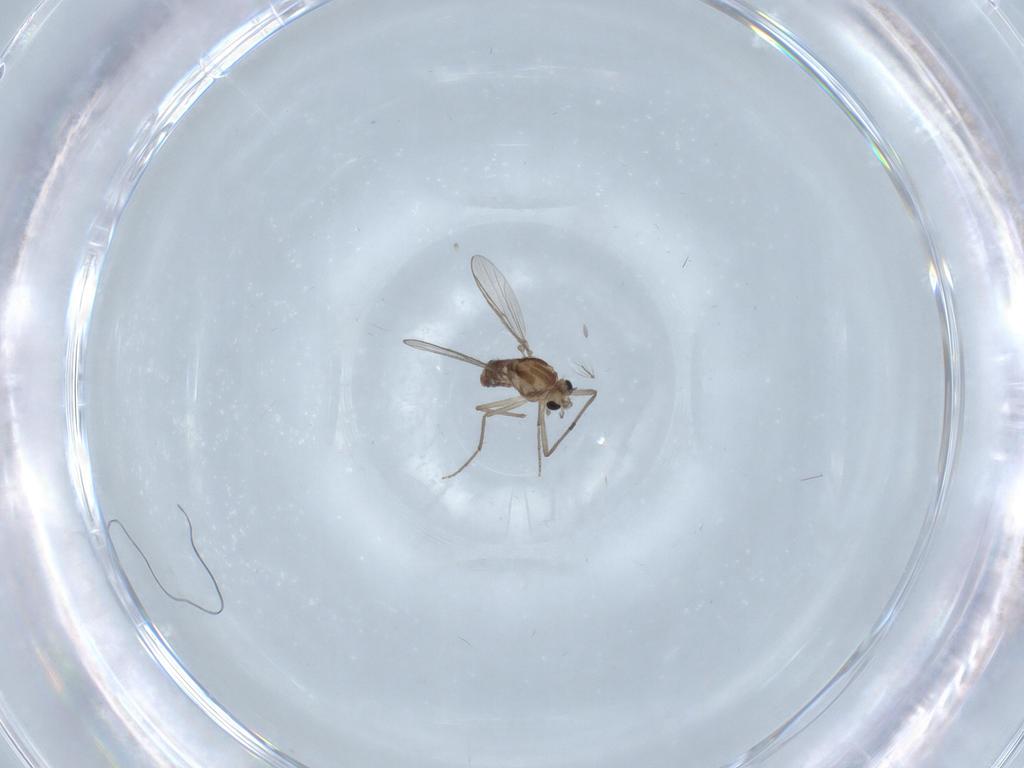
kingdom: Animalia
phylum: Arthropoda
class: Insecta
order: Diptera
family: Chironomidae
